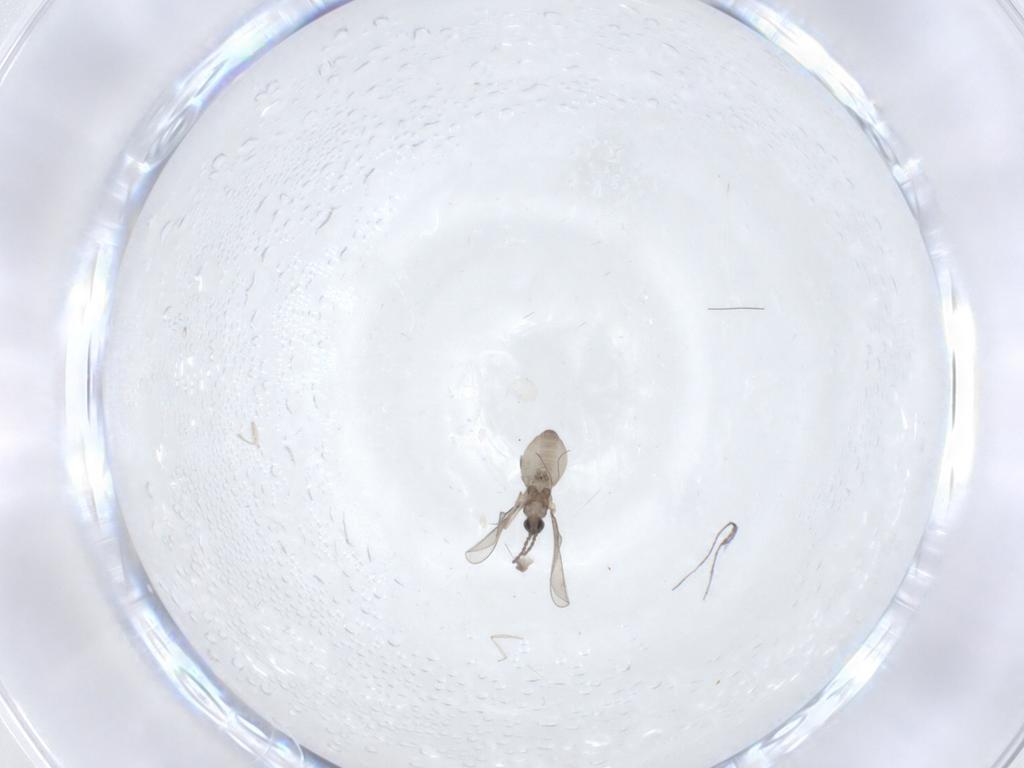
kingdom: Animalia
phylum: Arthropoda
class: Insecta
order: Diptera
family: Cecidomyiidae
